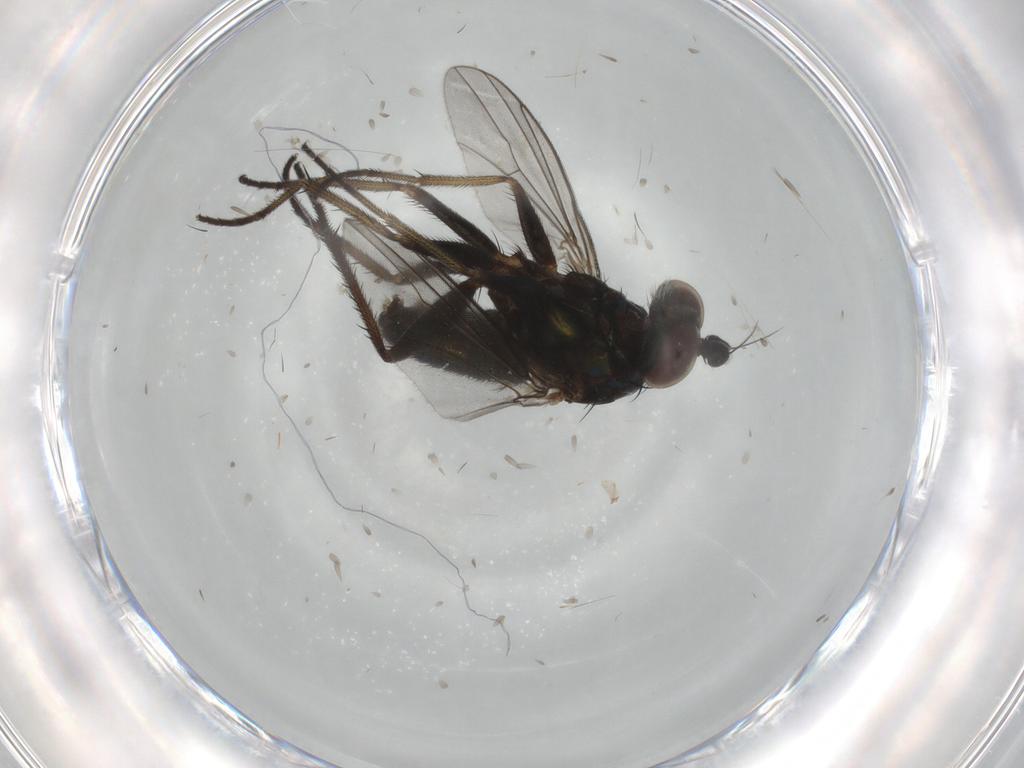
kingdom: Animalia
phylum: Arthropoda
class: Insecta
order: Diptera
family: Dolichopodidae
